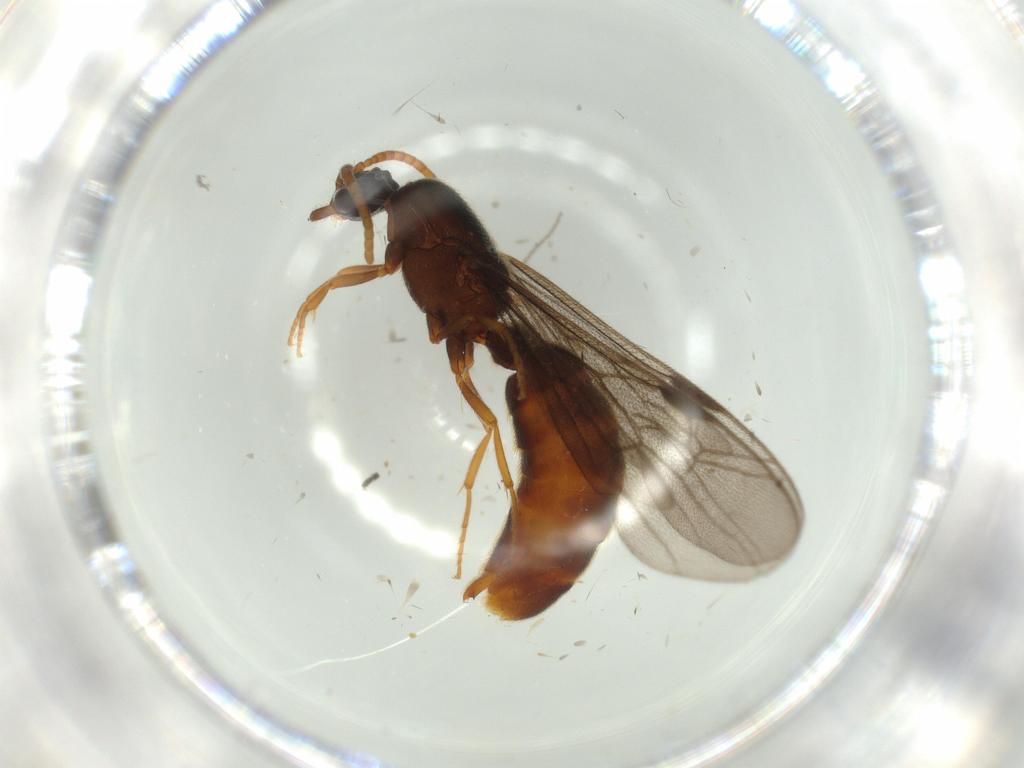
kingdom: Animalia
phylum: Arthropoda
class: Insecta
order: Hymenoptera
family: Formicidae
